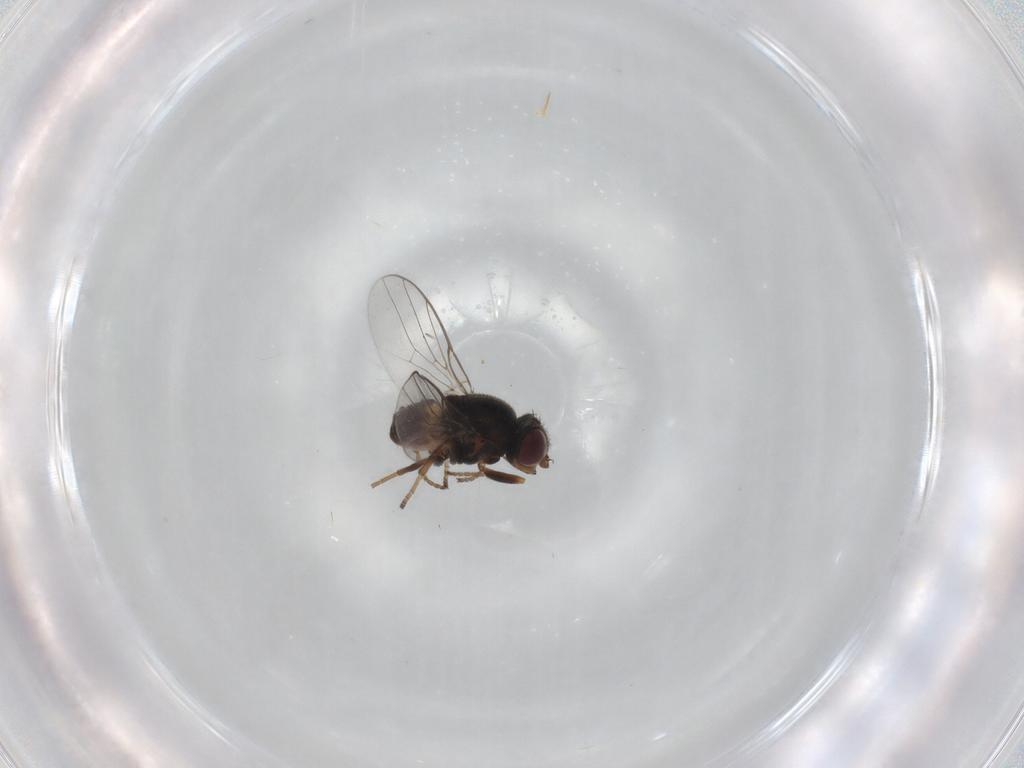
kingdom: Animalia
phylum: Arthropoda
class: Insecta
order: Diptera
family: Chloropidae
